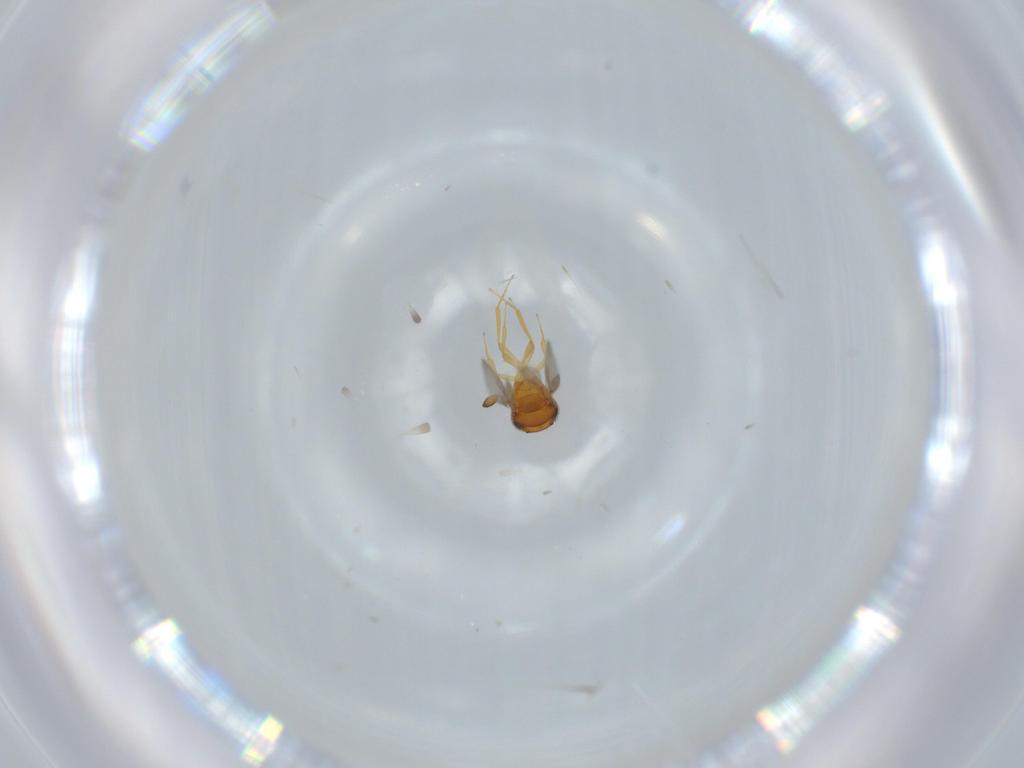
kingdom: Animalia
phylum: Arthropoda
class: Insecta
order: Hymenoptera
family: Scelionidae
